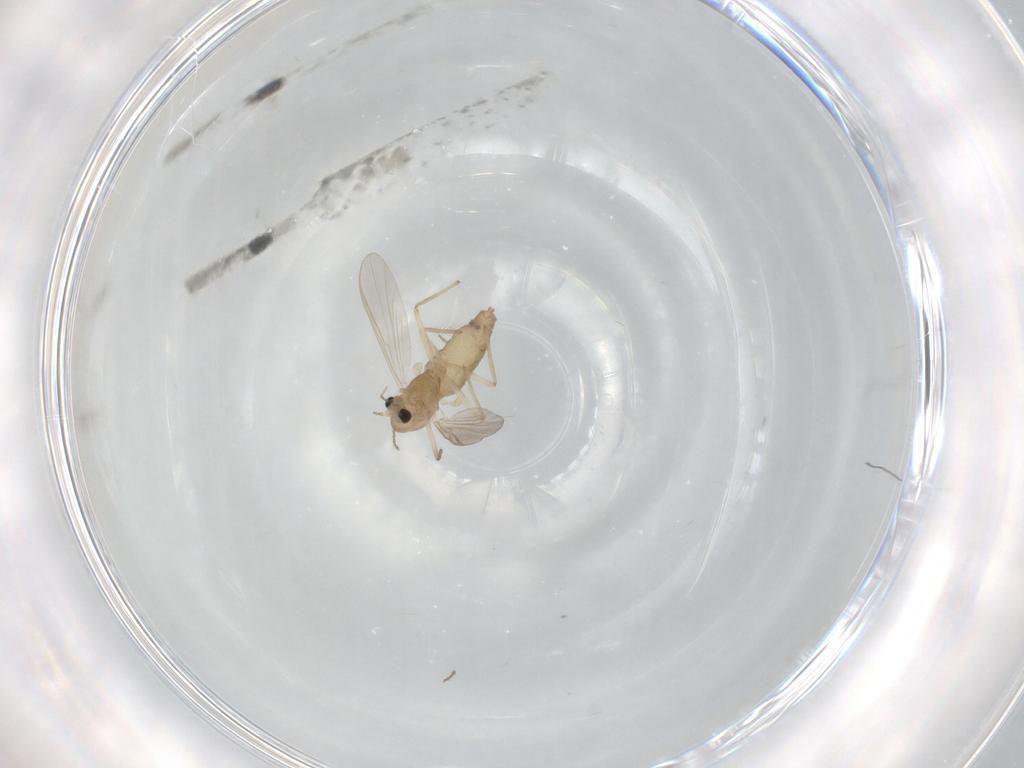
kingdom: Animalia
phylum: Arthropoda
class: Insecta
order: Diptera
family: Chironomidae
